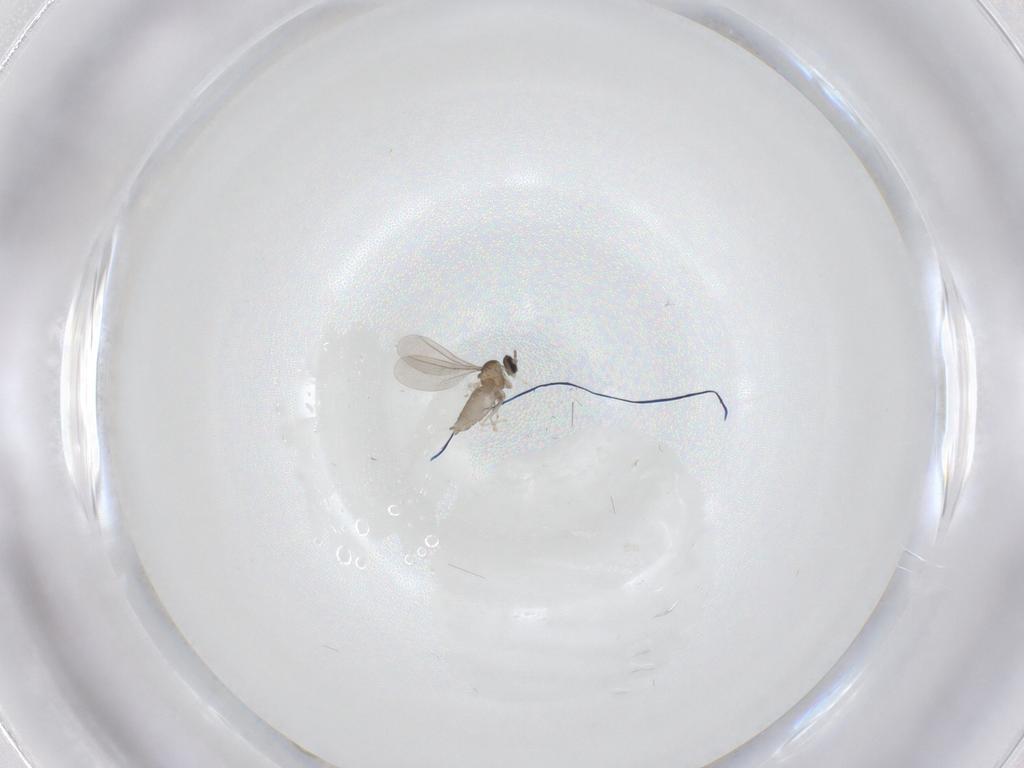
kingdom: Animalia
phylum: Arthropoda
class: Insecta
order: Diptera
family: Cecidomyiidae
